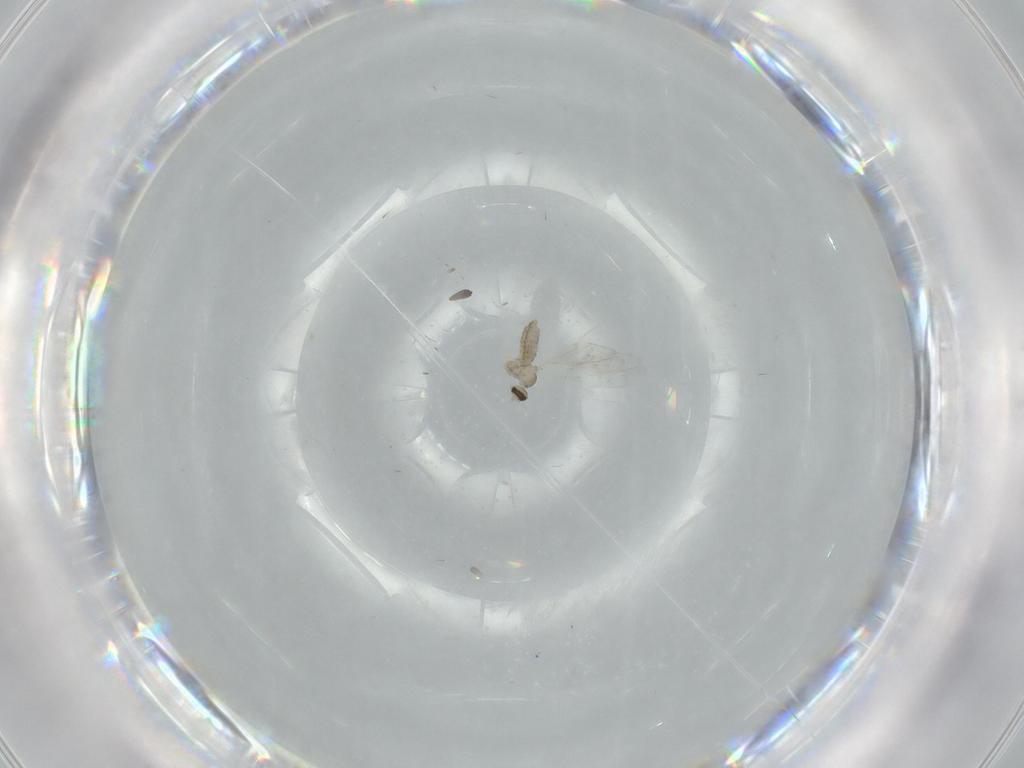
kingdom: Animalia
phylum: Arthropoda
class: Insecta
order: Diptera
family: Cecidomyiidae
